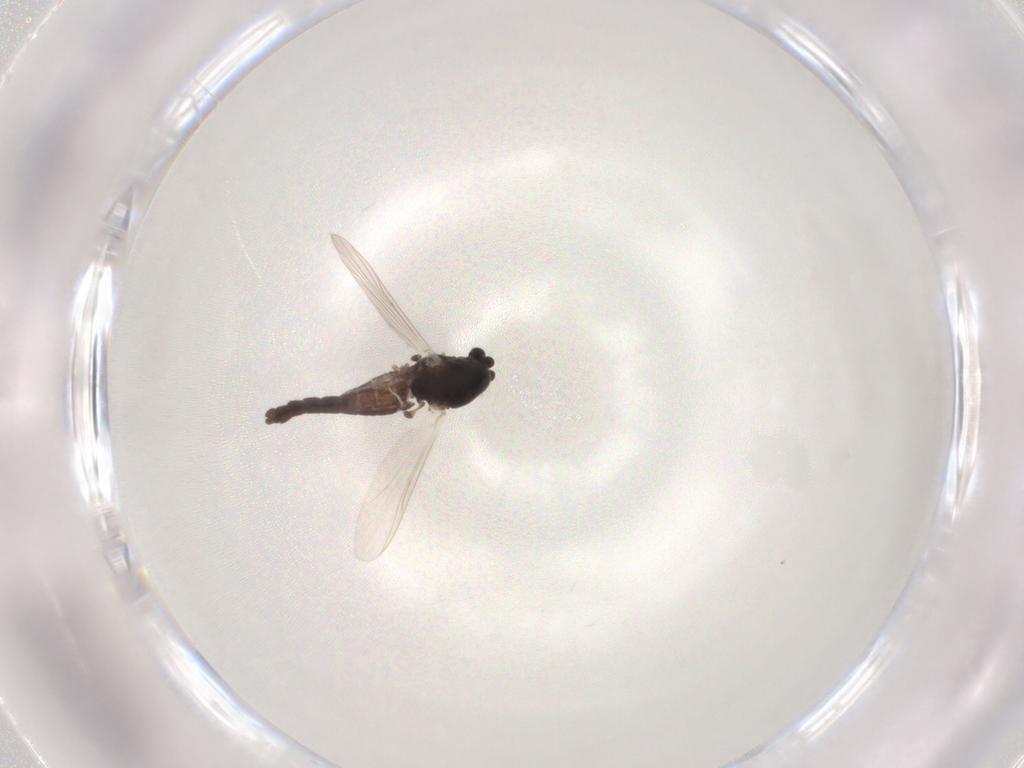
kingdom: Animalia
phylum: Arthropoda
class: Insecta
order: Diptera
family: Chironomidae
